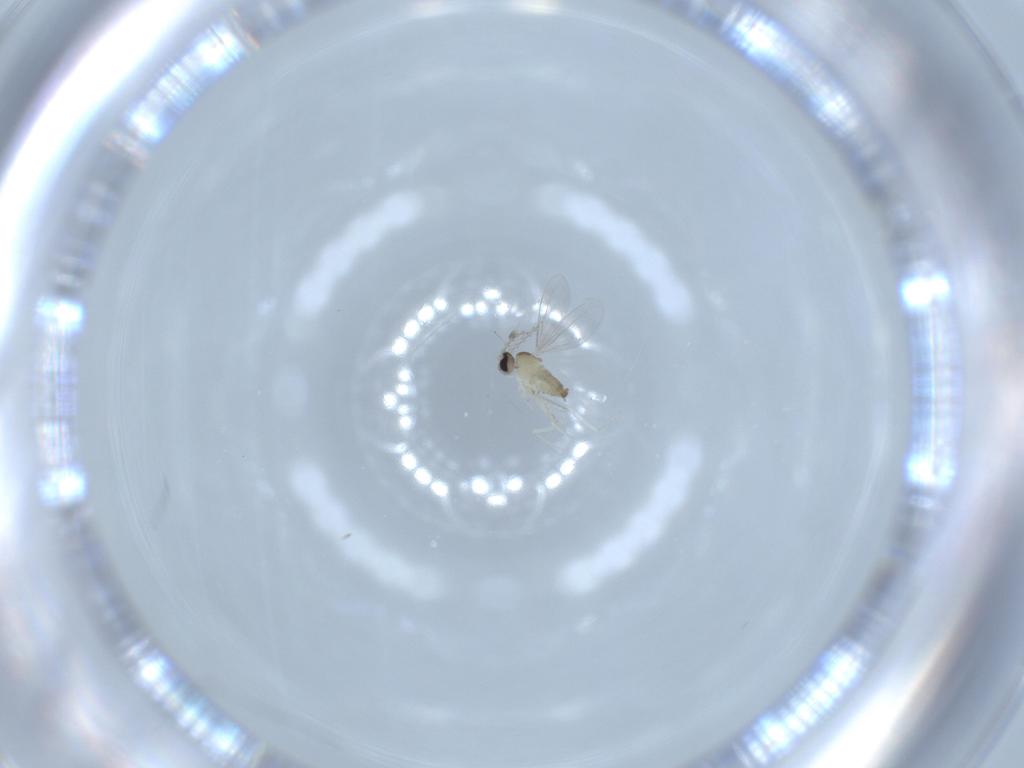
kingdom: Animalia
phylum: Arthropoda
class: Insecta
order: Diptera
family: Cecidomyiidae
